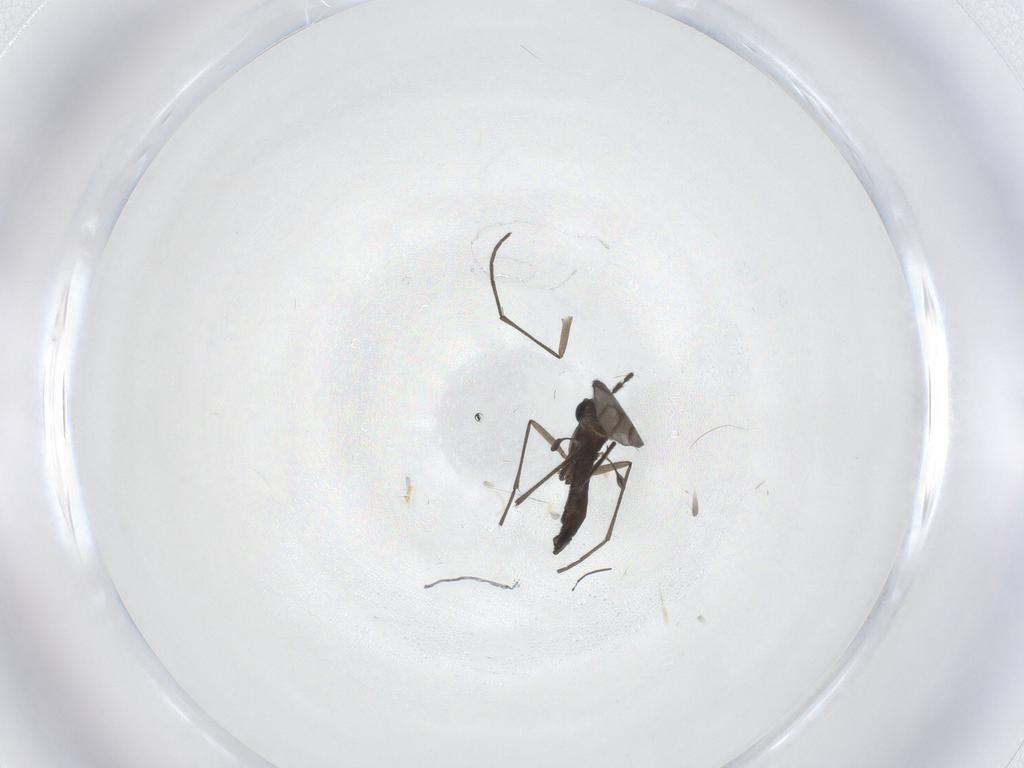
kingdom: Animalia
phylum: Arthropoda
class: Insecta
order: Diptera
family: Sciaridae
